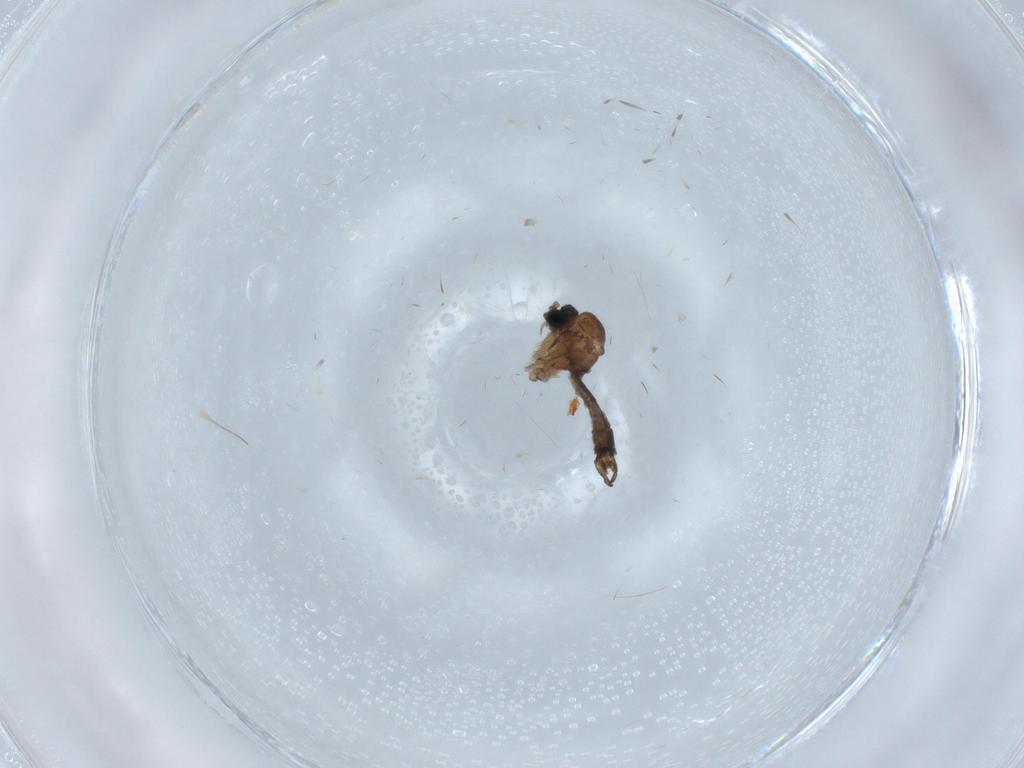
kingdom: Animalia
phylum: Arthropoda
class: Insecta
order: Diptera
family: Sciaridae
